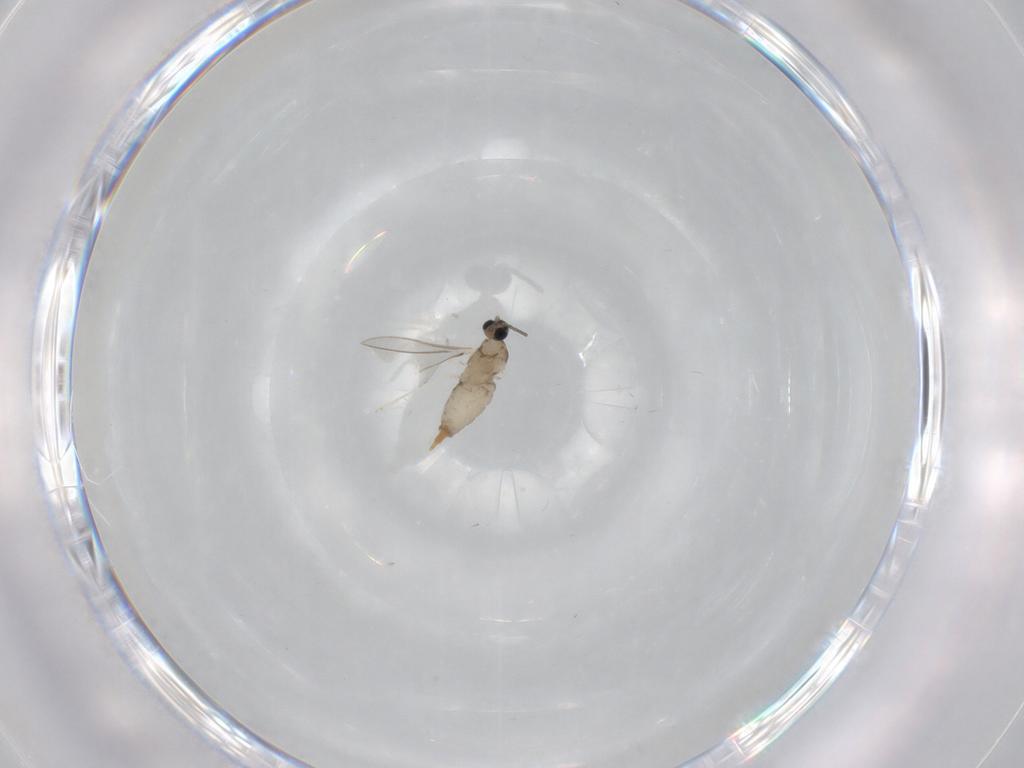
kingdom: Animalia
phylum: Arthropoda
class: Insecta
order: Diptera
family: Cecidomyiidae
